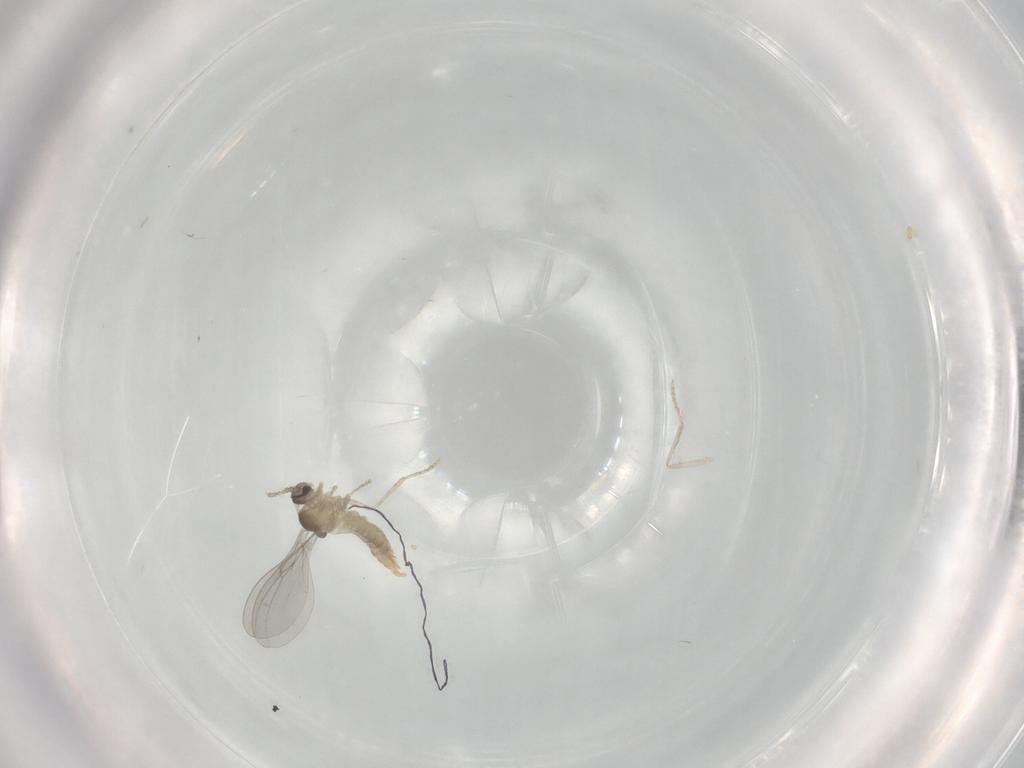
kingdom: Animalia
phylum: Arthropoda
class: Insecta
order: Diptera
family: Cecidomyiidae
